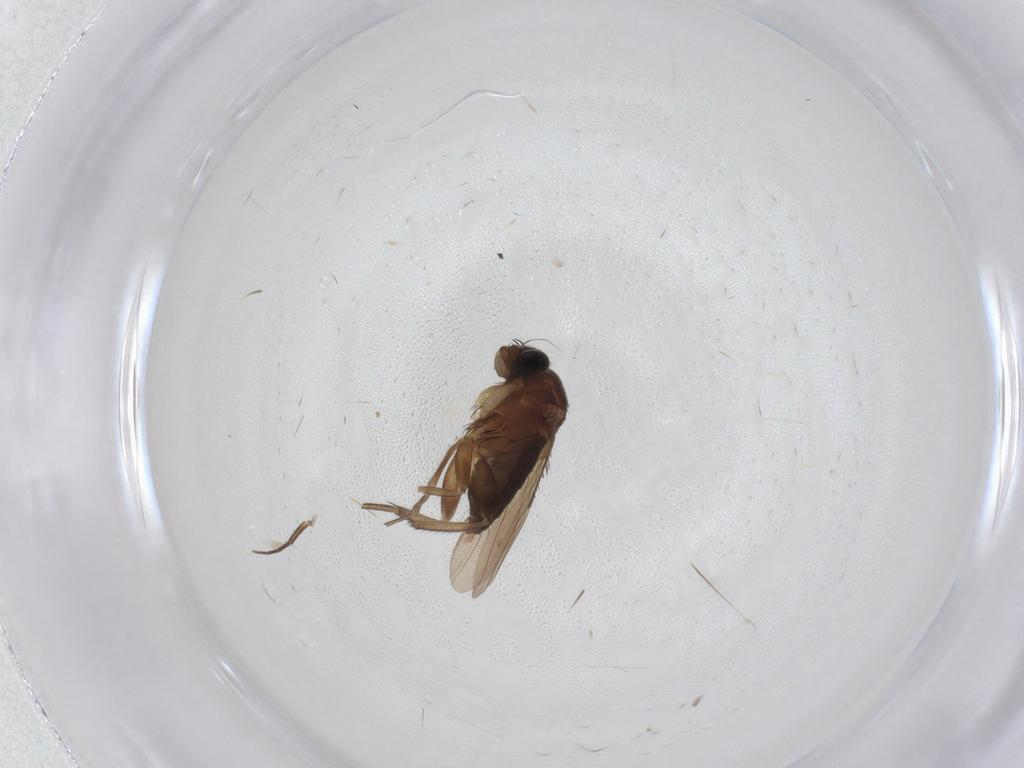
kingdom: Animalia
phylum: Arthropoda
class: Insecta
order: Diptera
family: Phoridae
